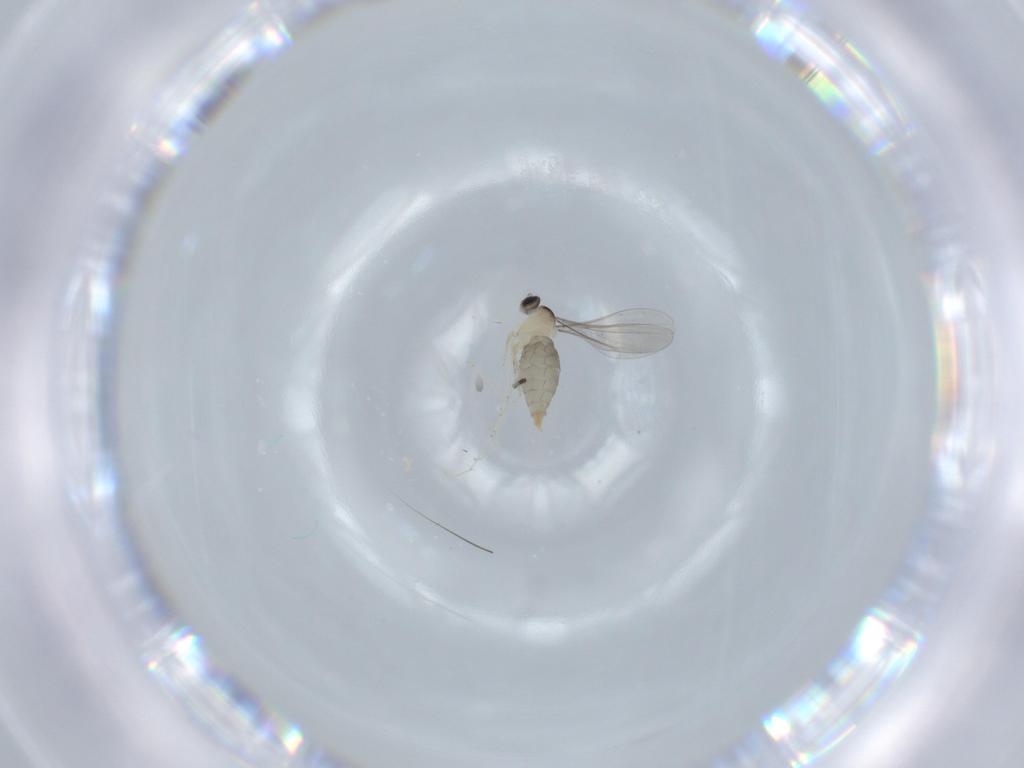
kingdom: Animalia
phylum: Arthropoda
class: Insecta
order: Diptera
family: Sciaridae
